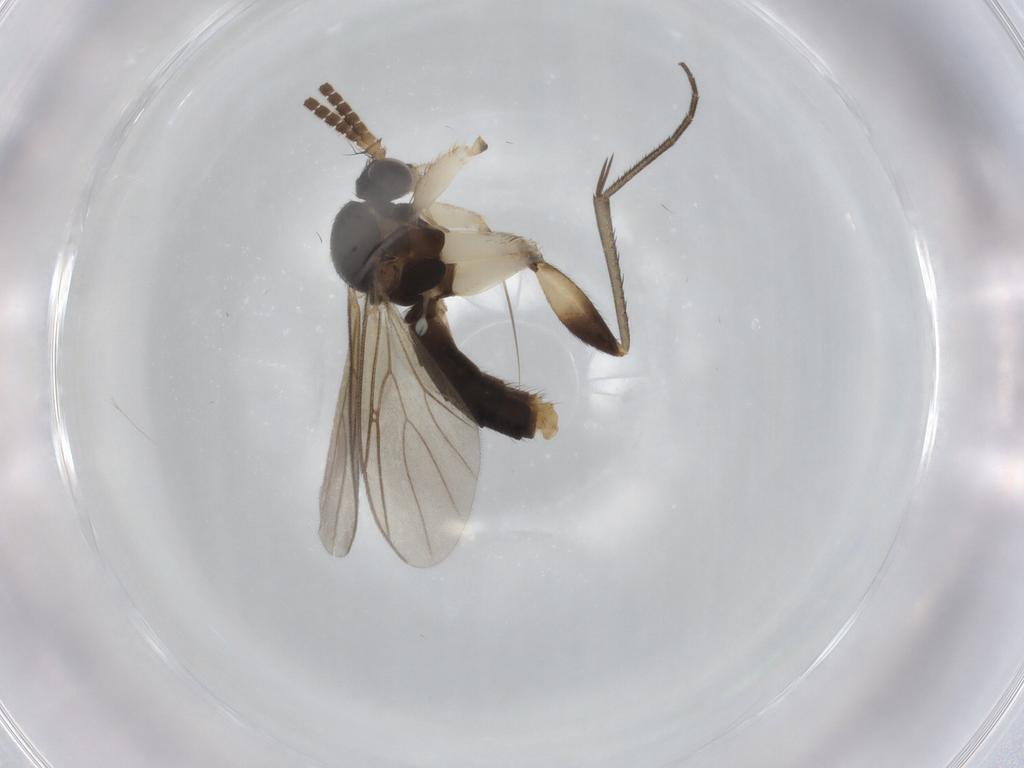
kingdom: Animalia
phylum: Arthropoda
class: Insecta
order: Diptera
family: Mycetophilidae
